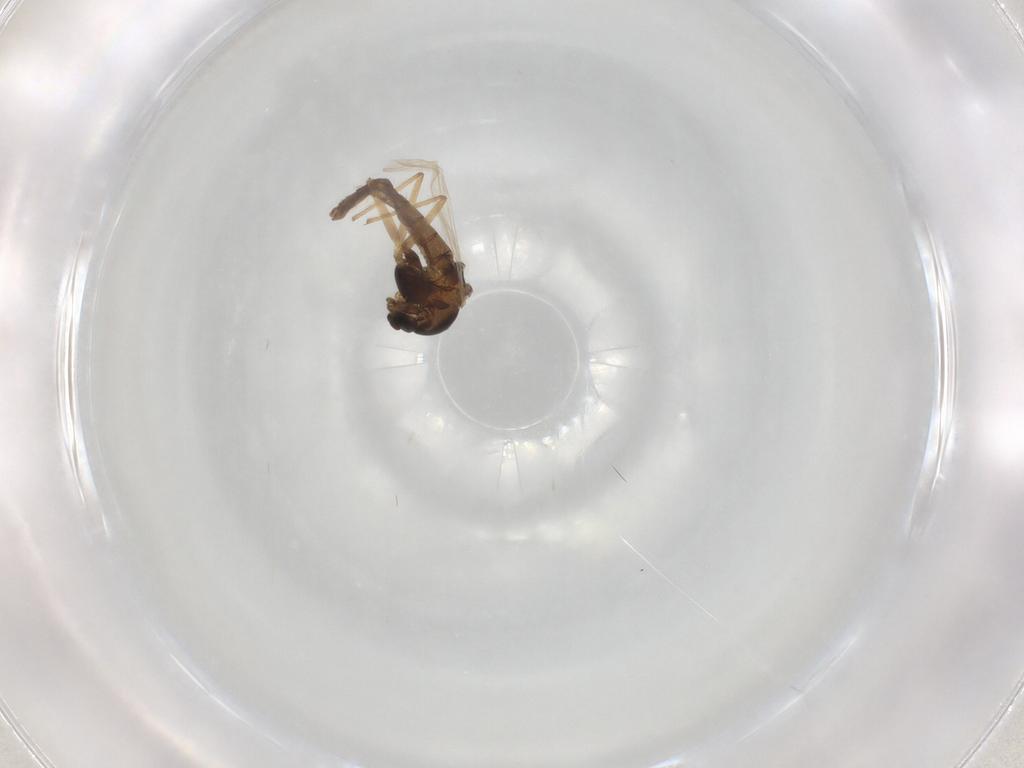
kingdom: Animalia
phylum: Arthropoda
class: Insecta
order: Diptera
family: Chironomidae
